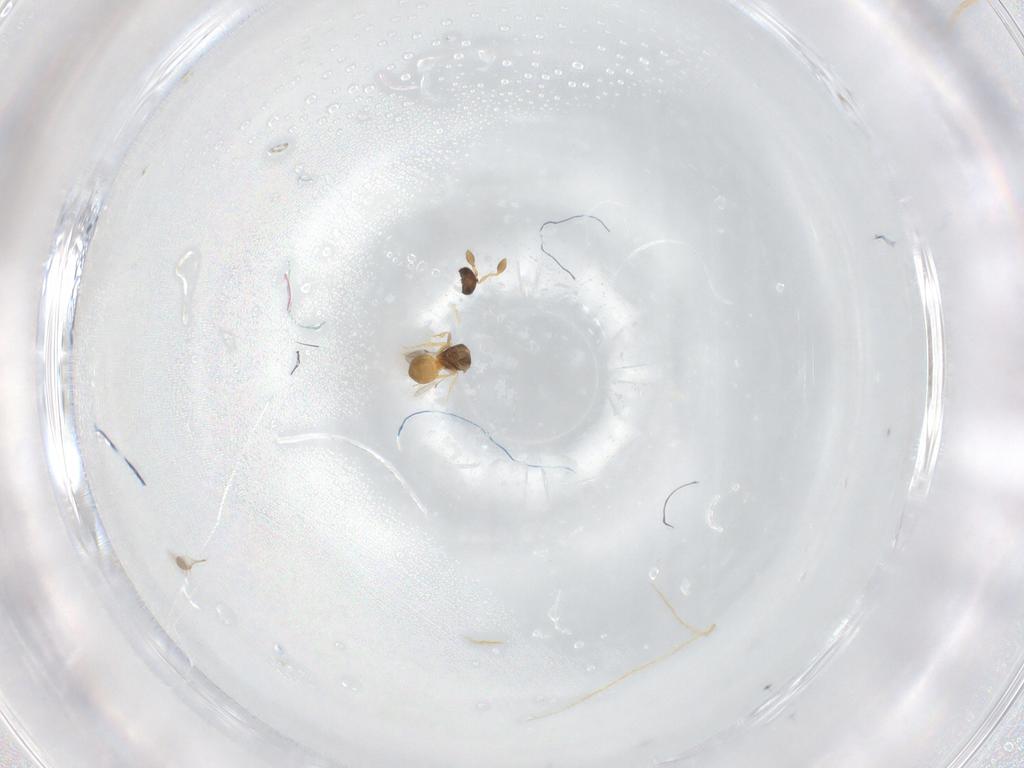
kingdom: Animalia
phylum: Arthropoda
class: Insecta
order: Hymenoptera
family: Scelionidae
